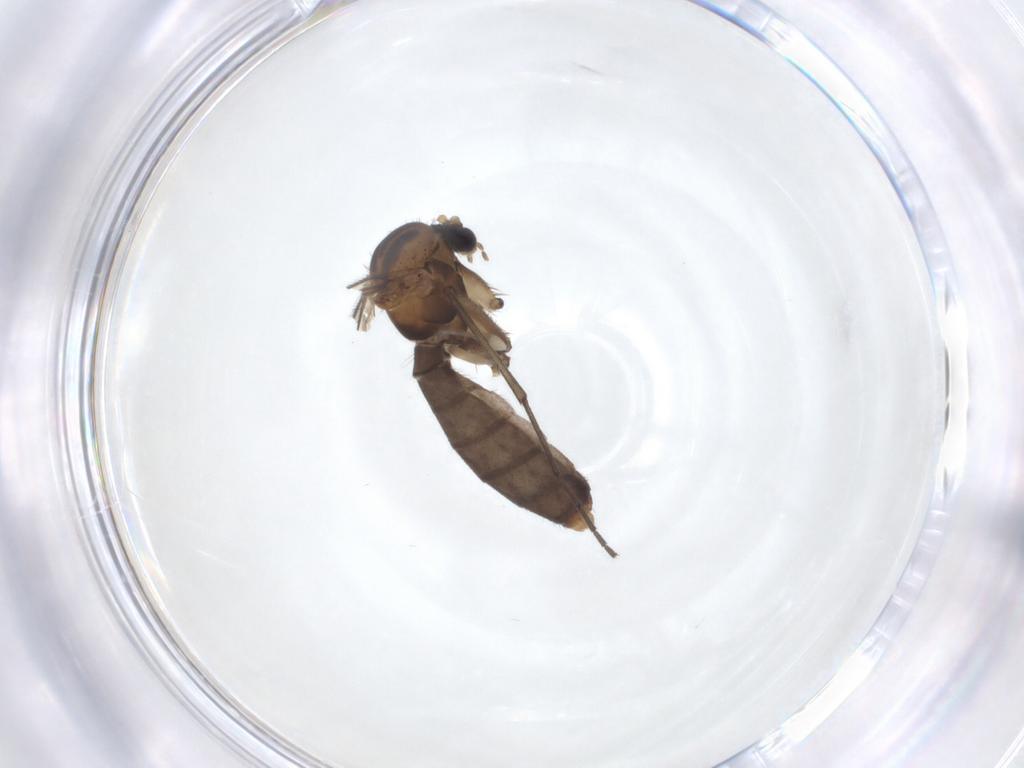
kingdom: Animalia
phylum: Arthropoda
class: Insecta
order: Diptera
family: Mycetophilidae
